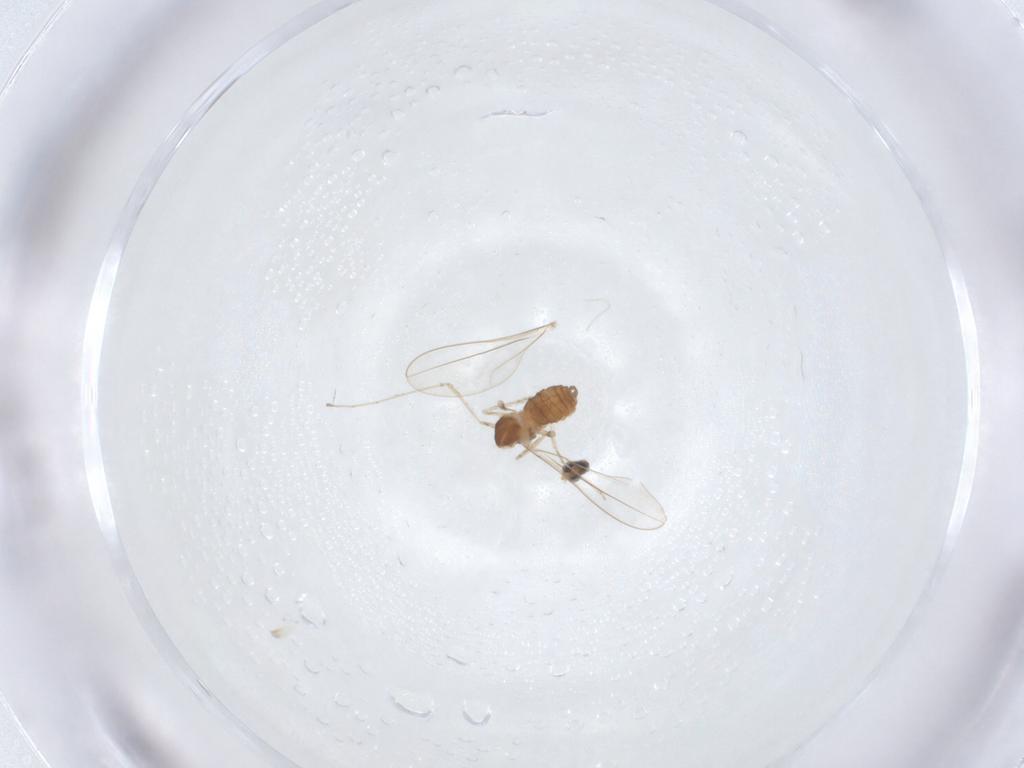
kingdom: Animalia
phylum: Arthropoda
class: Insecta
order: Diptera
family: Cecidomyiidae
